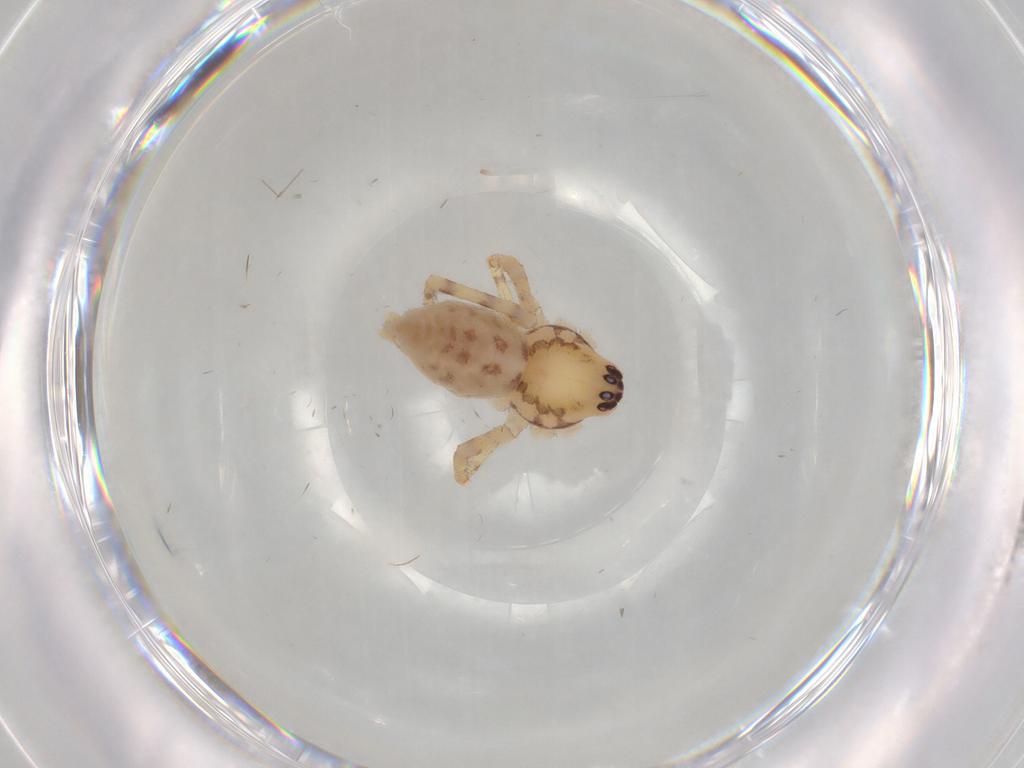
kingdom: Animalia
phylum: Arthropoda
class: Arachnida
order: Araneae
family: Corinnidae
